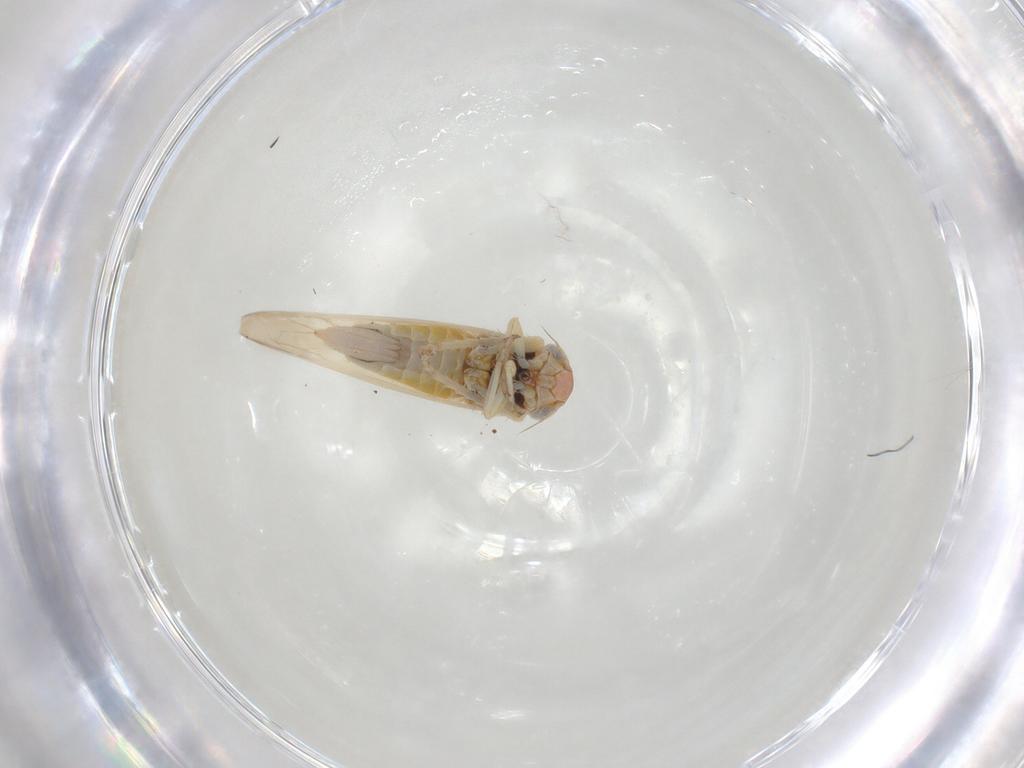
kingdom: Animalia
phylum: Arthropoda
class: Insecta
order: Hemiptera
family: Cicadellidae
